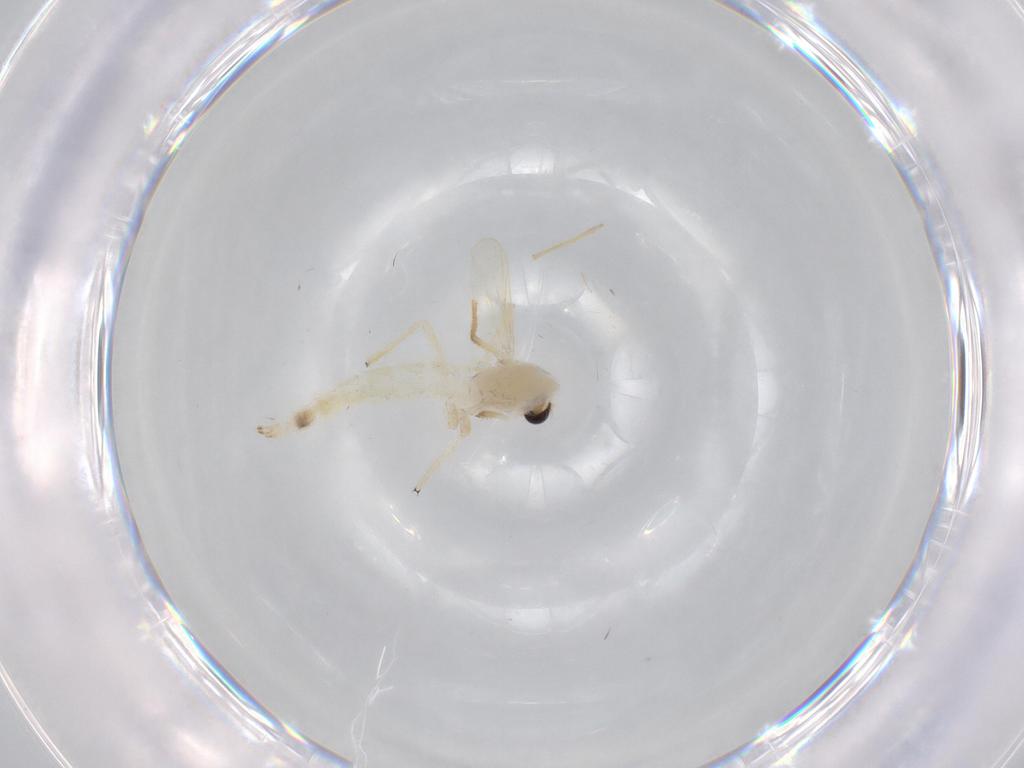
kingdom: Animalia
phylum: Arthropoda
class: Insecta
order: Diptera
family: Chironomidae
